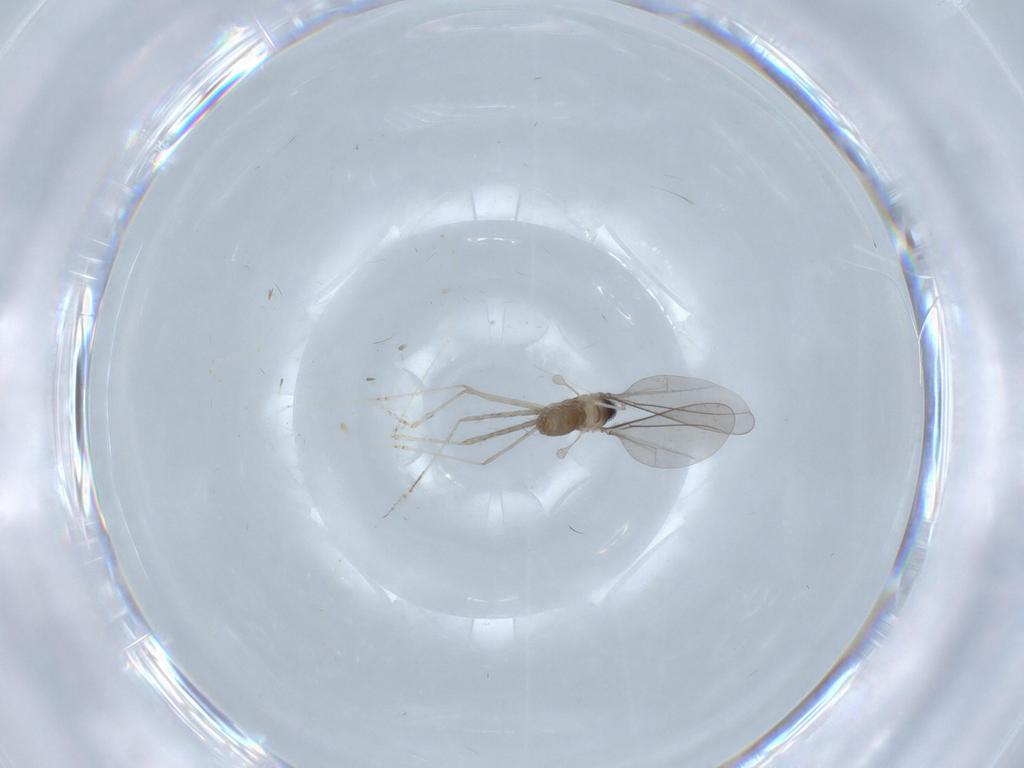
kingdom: Animalia
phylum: Arthropoda
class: Insecta
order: Diptera
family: Cecidomyiidae
